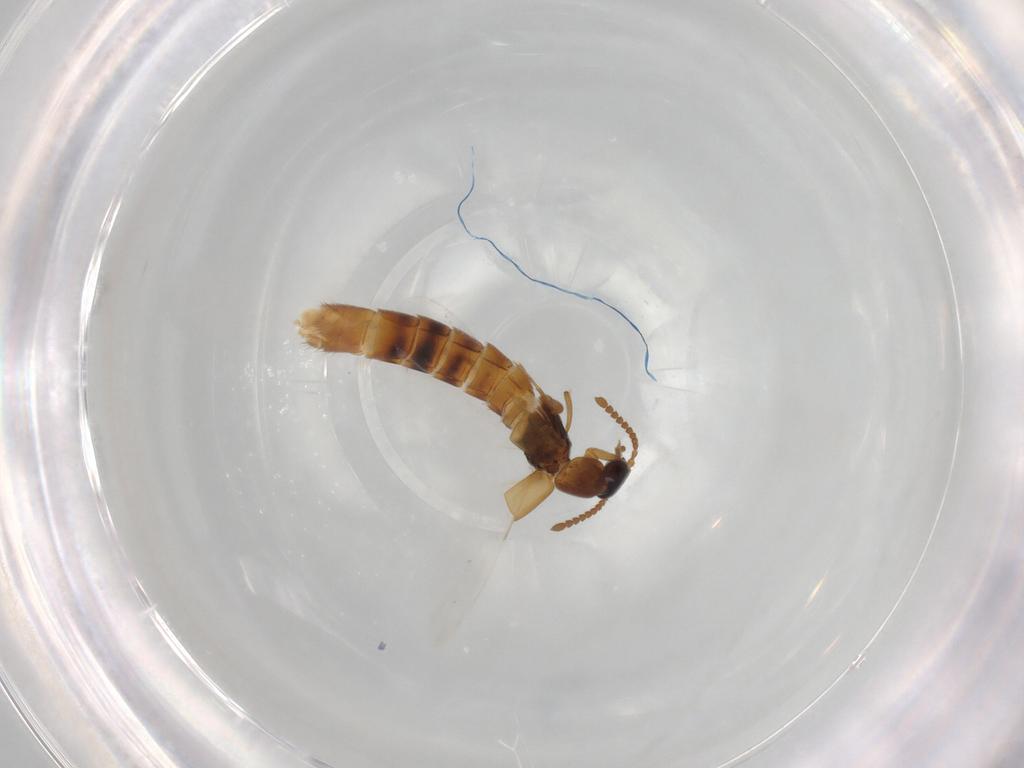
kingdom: Animalia
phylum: Arthropoda
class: Insecta
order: Coleoptera
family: Staphylinidae
